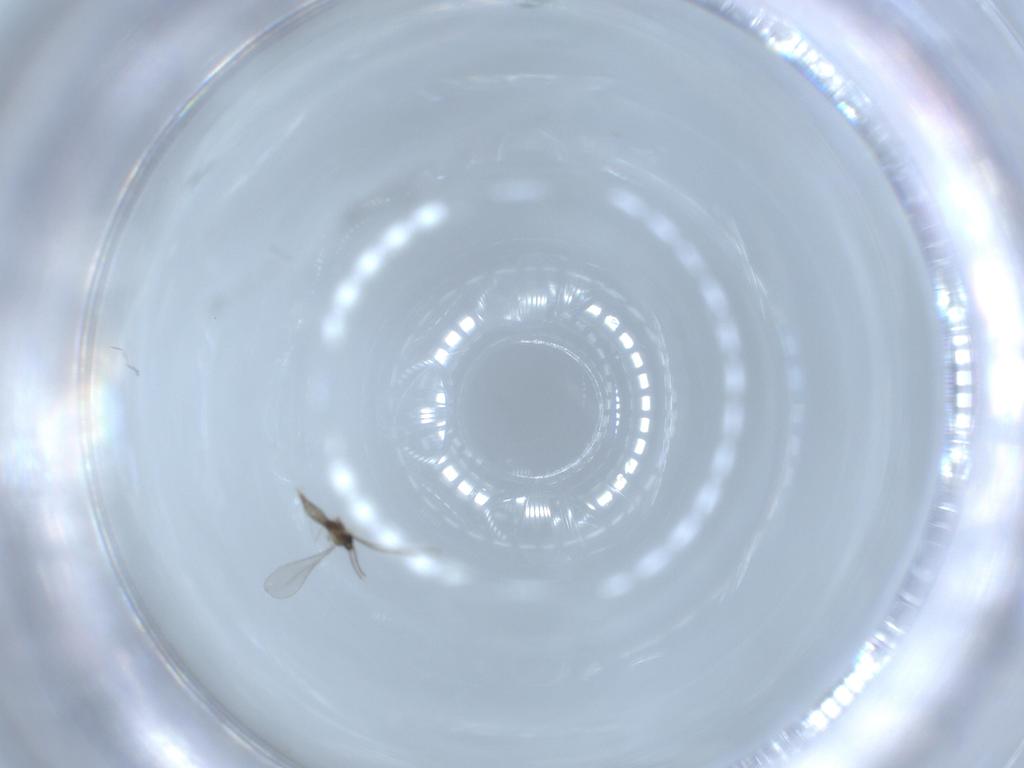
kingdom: Animalia
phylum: Arthropoda
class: Insecta
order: Diptera
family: Cecidomyiidae
